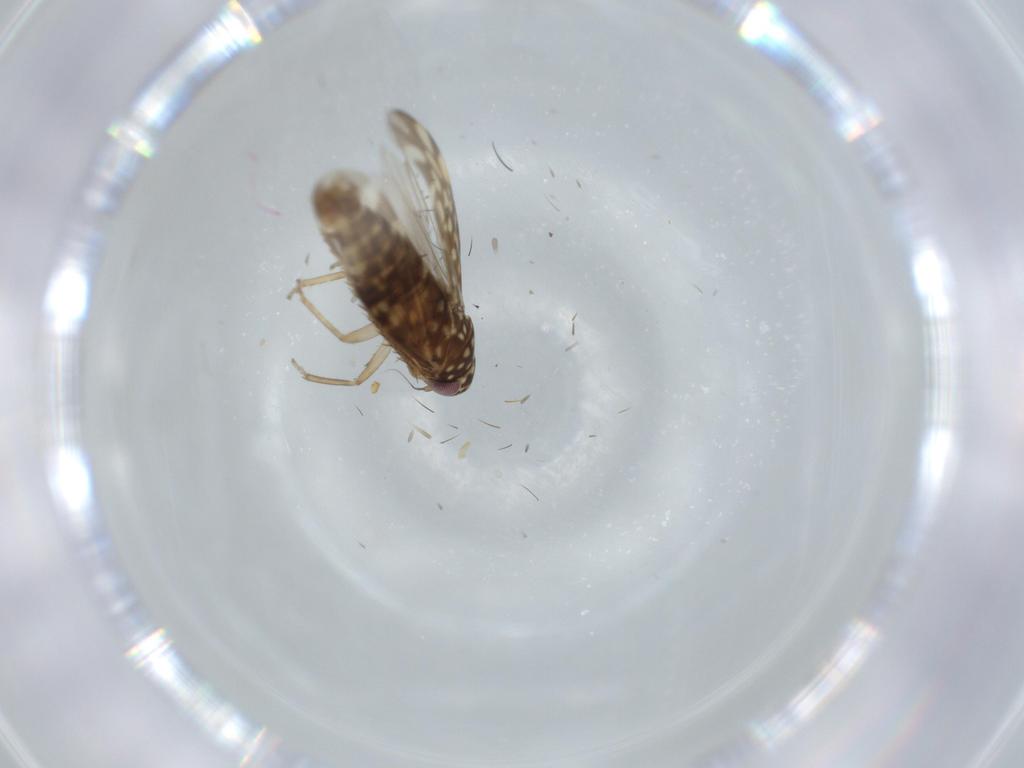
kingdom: Animalia
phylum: Arthropoda
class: Insecta
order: Hemiptera
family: Cicadellidae
